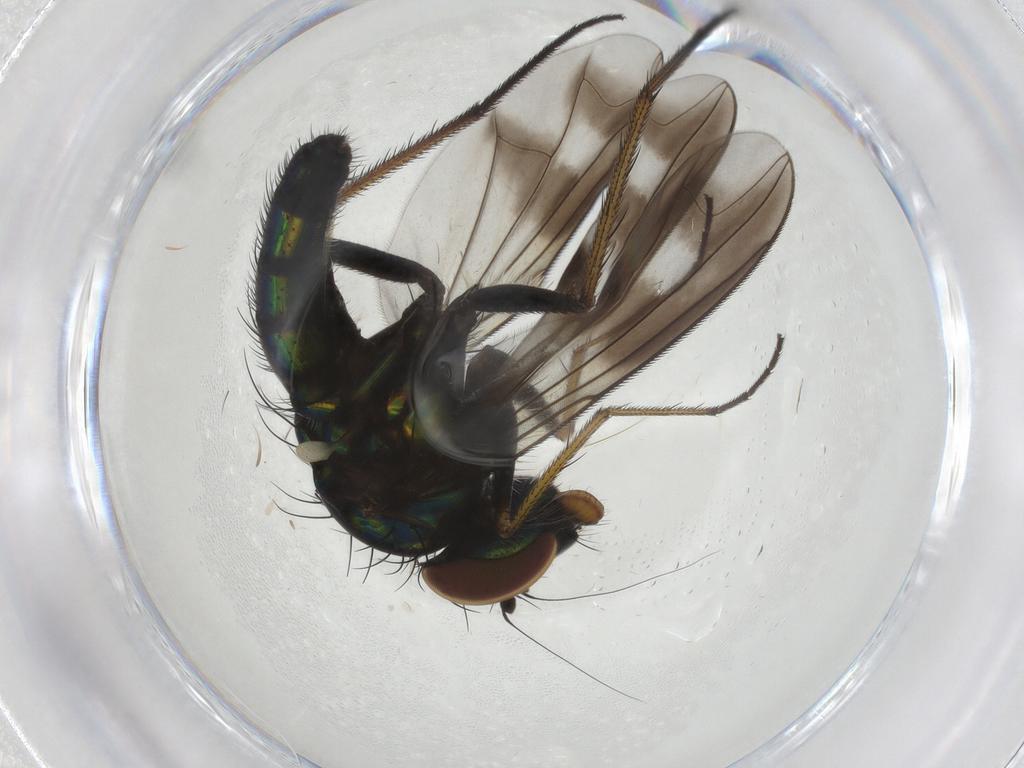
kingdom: Animalia
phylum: Arthropoda
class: Insecta
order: Diptera
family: Dolichopodidae
